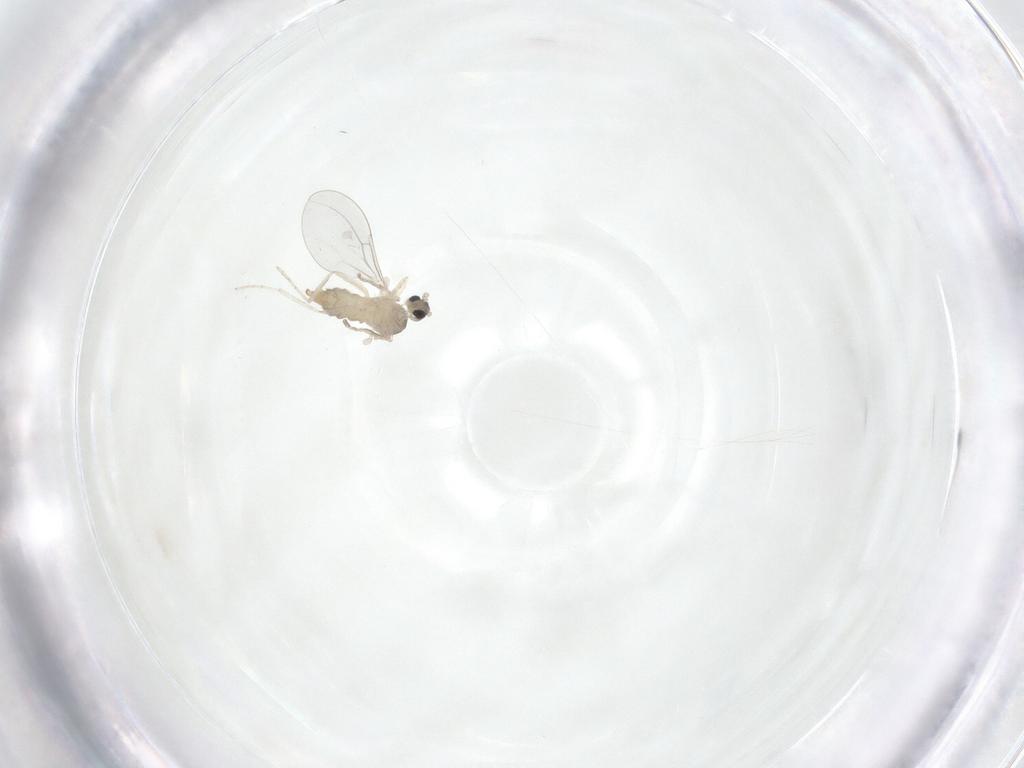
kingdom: Animalia
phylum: Arthropoda
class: Insecta
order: Diptera
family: Cecidomyiidae
